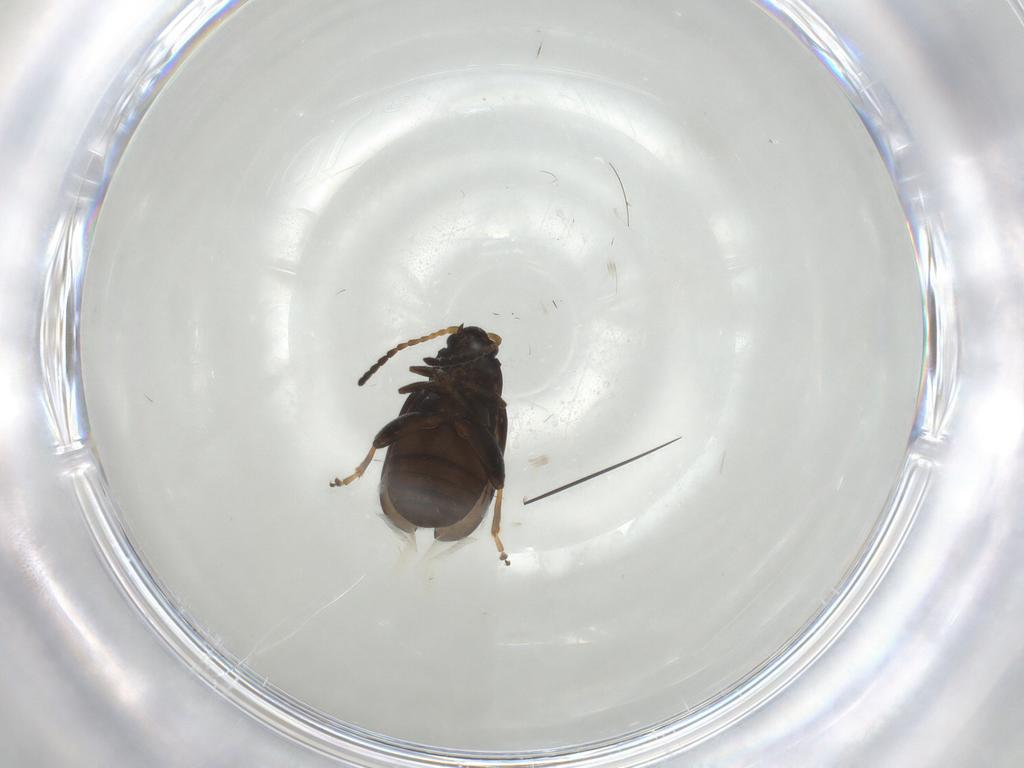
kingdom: Animalia
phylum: Arthropoda
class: Insecta
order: Coleoptera
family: Chrysomelidae
